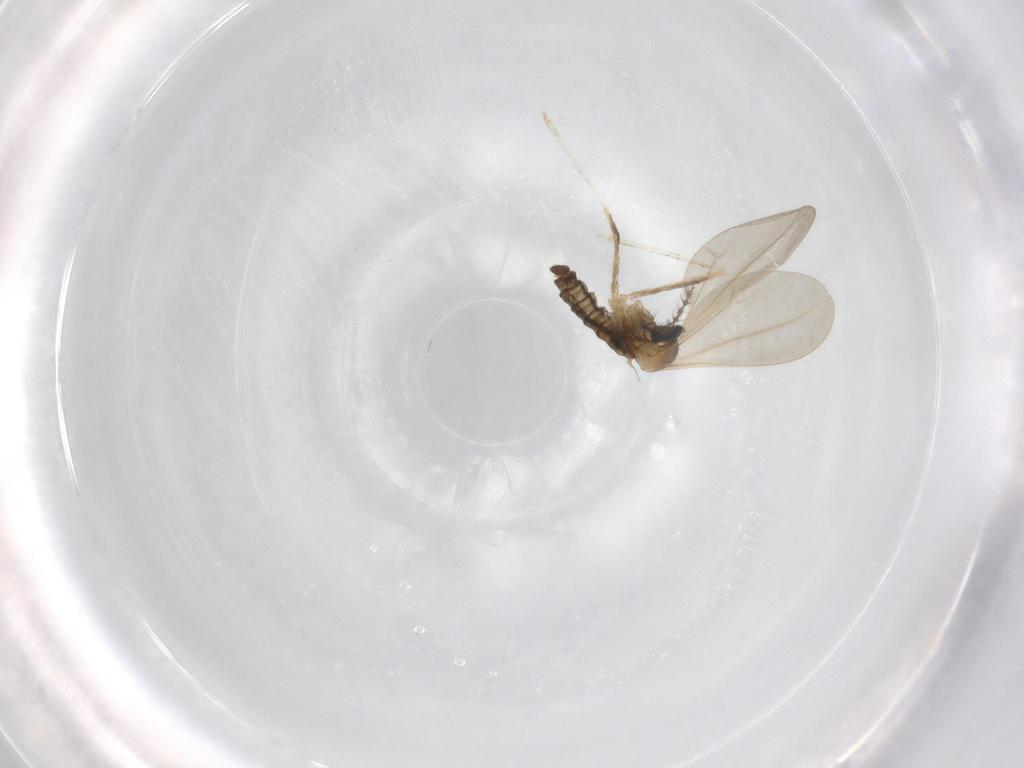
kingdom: Animalia
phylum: Arthropoda
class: Insecta
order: Diptera
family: Cecidomyiidae
